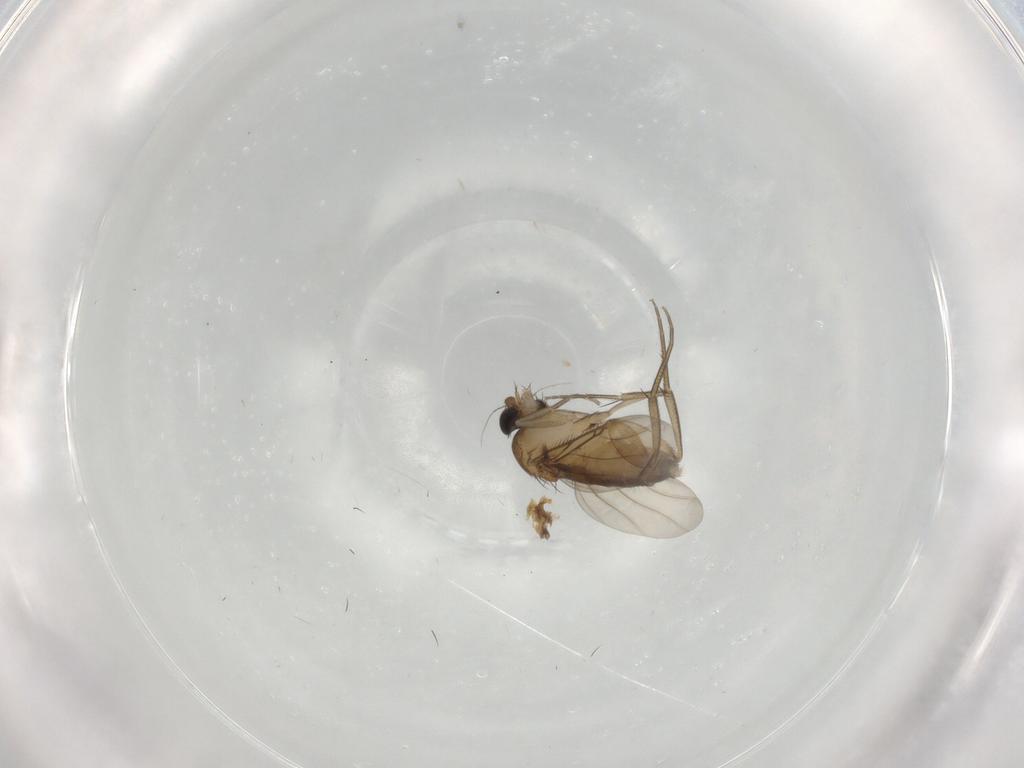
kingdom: Animalia
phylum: Arthropoda
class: Insecta
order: Diptera
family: Phoridae
